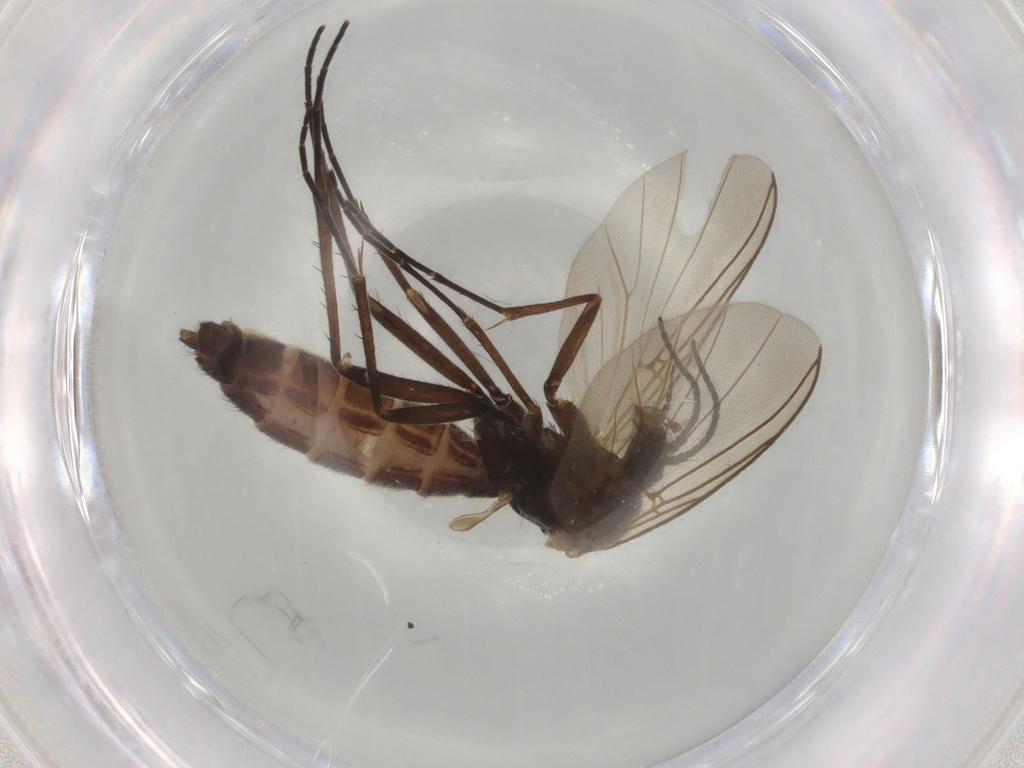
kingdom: Animalia
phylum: Arthropoda
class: Insecta
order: Diptera
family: Mycetophilidae
